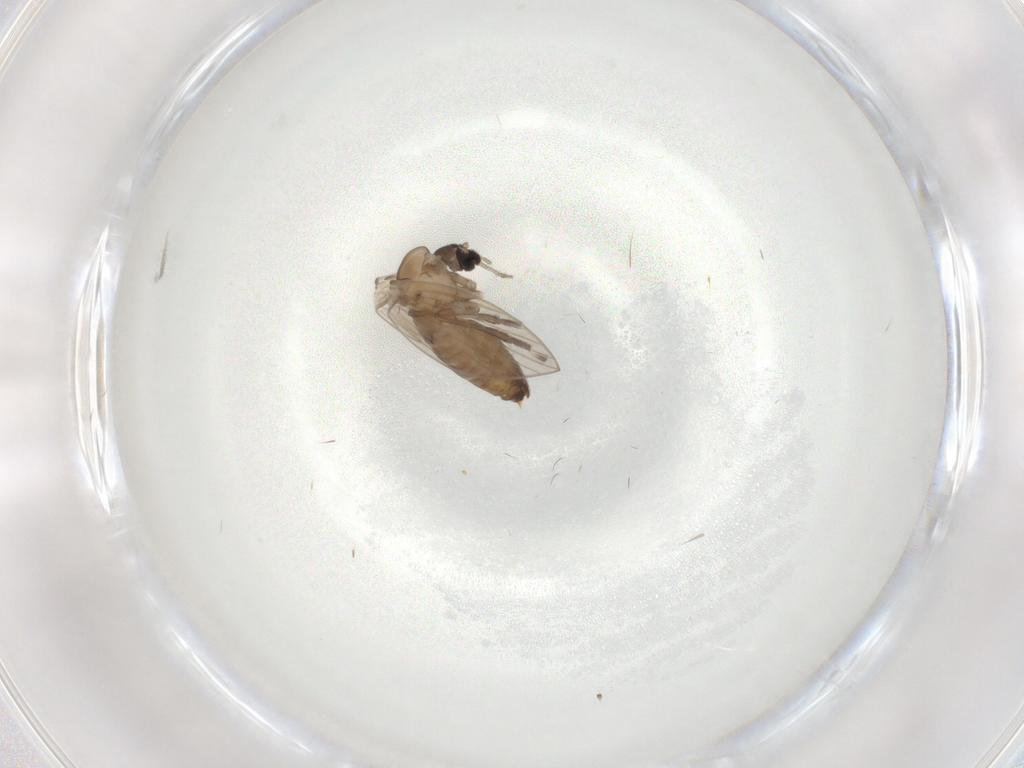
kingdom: Animalia
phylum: Arthropoda
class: Insecta
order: Diptera
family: Psychodidae
